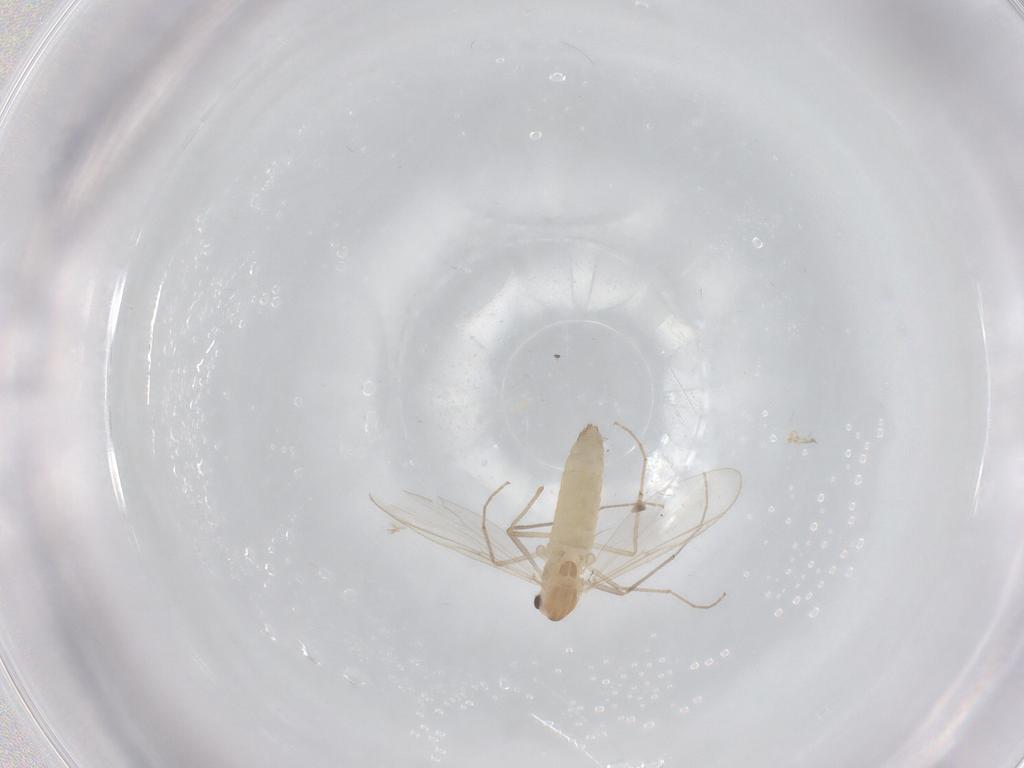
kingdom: Animalia
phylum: Arthropoda
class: Insecta
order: Diptera
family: Chironomidae
